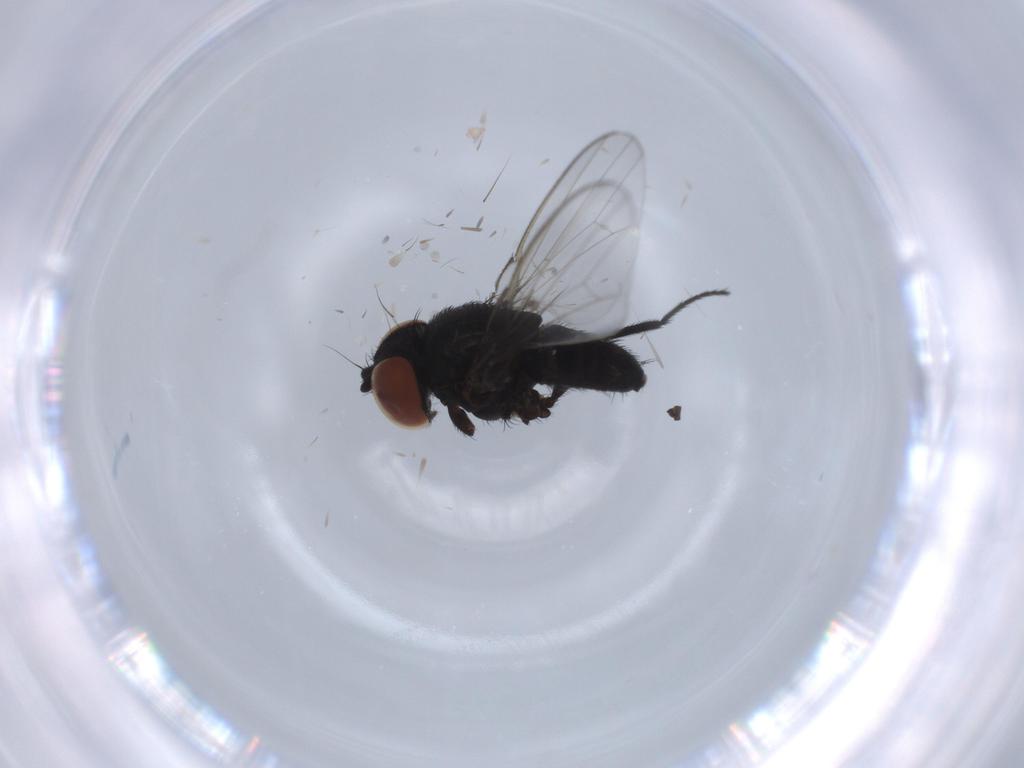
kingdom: Animalia
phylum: Arthropoda
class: Insecta
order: Diptera
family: Milichiidae
